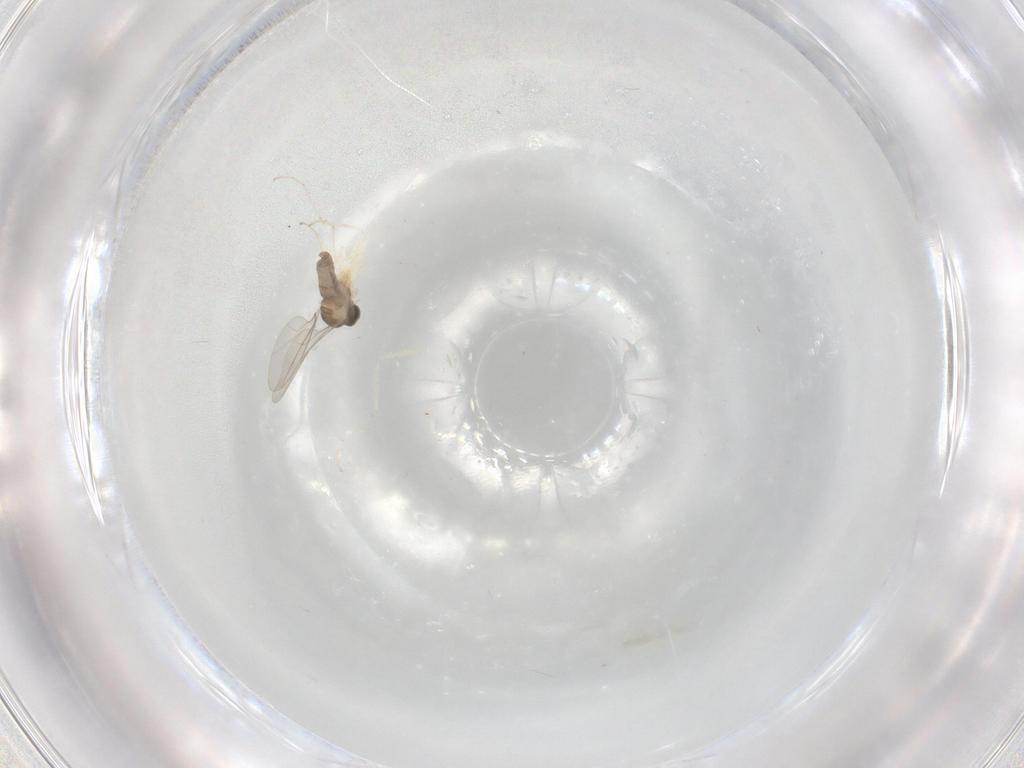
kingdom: Animalia
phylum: Arthropoda
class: Insecta
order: Diptera
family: Cecidomyiidae
